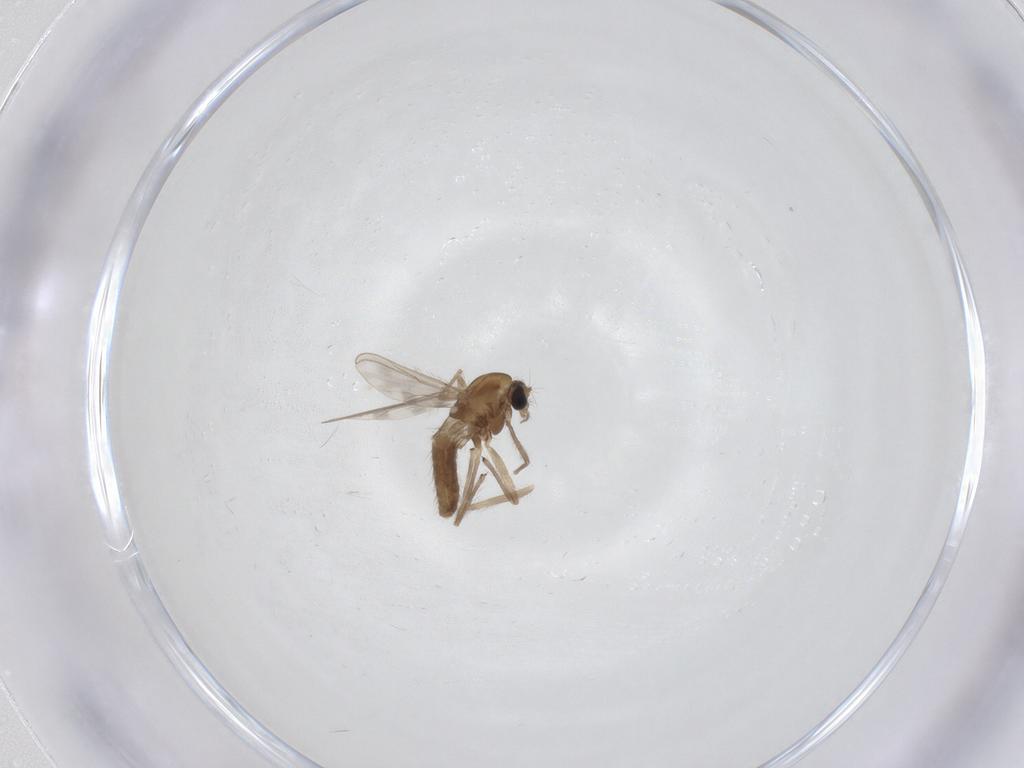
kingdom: Animalia
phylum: Arthropoda
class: Insecta
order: Diptera
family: Chironomidae
